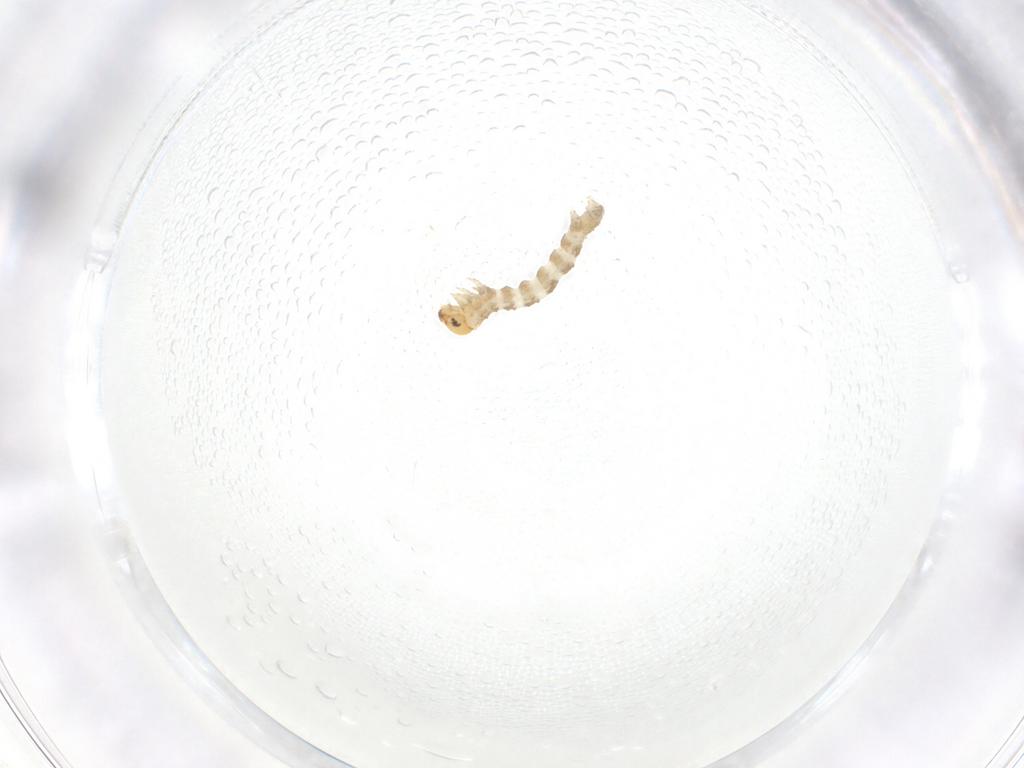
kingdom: Animalia
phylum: Arthropoda
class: Insecta
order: Lepidoptera
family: Geometridae
